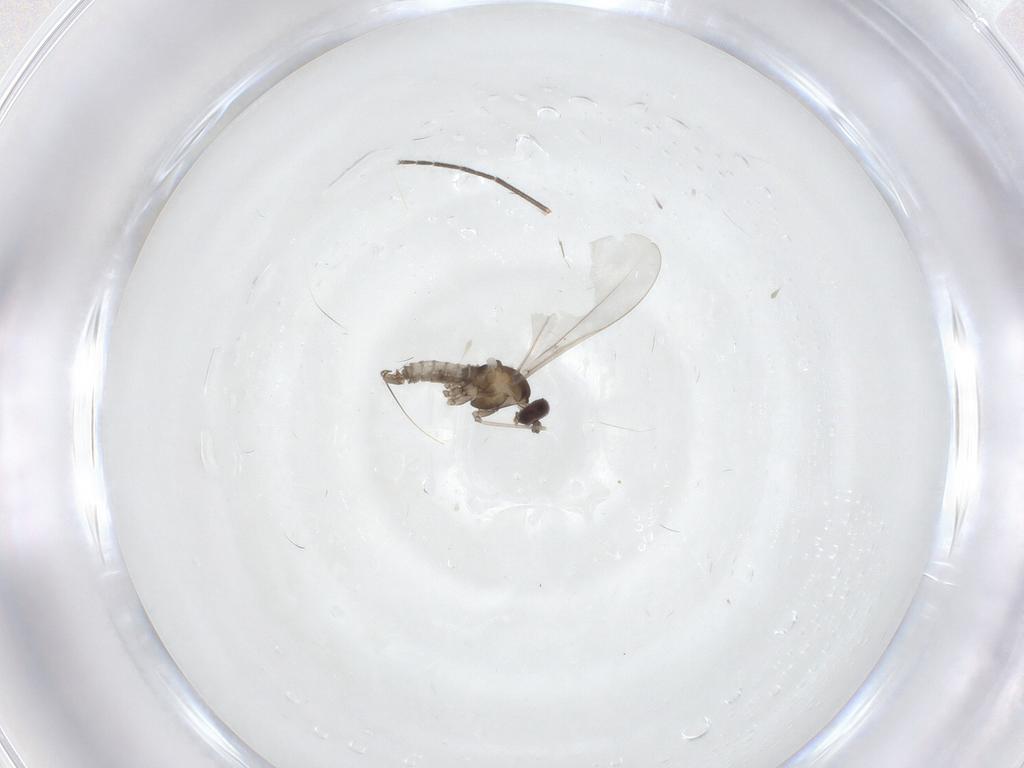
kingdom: Animalia
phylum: Arthropoda
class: Insecta
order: Diptera
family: Cecidomyiidae
